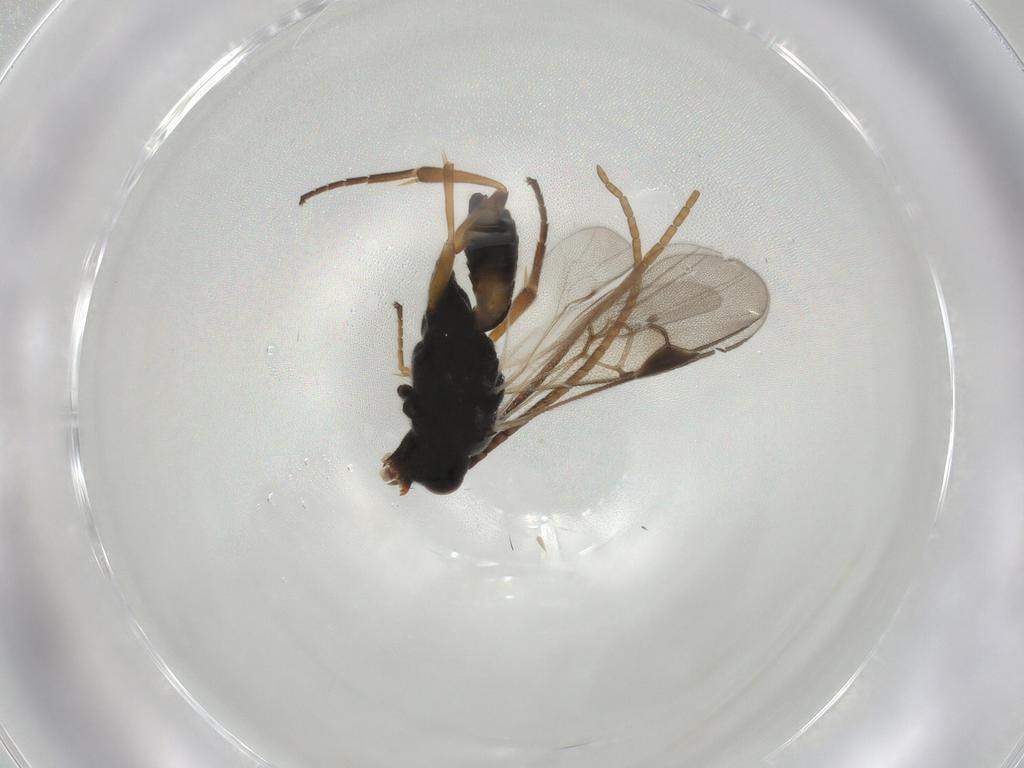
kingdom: Animalia
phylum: Arthropoda
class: Insecta
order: Hymenoptera
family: Braconidae
